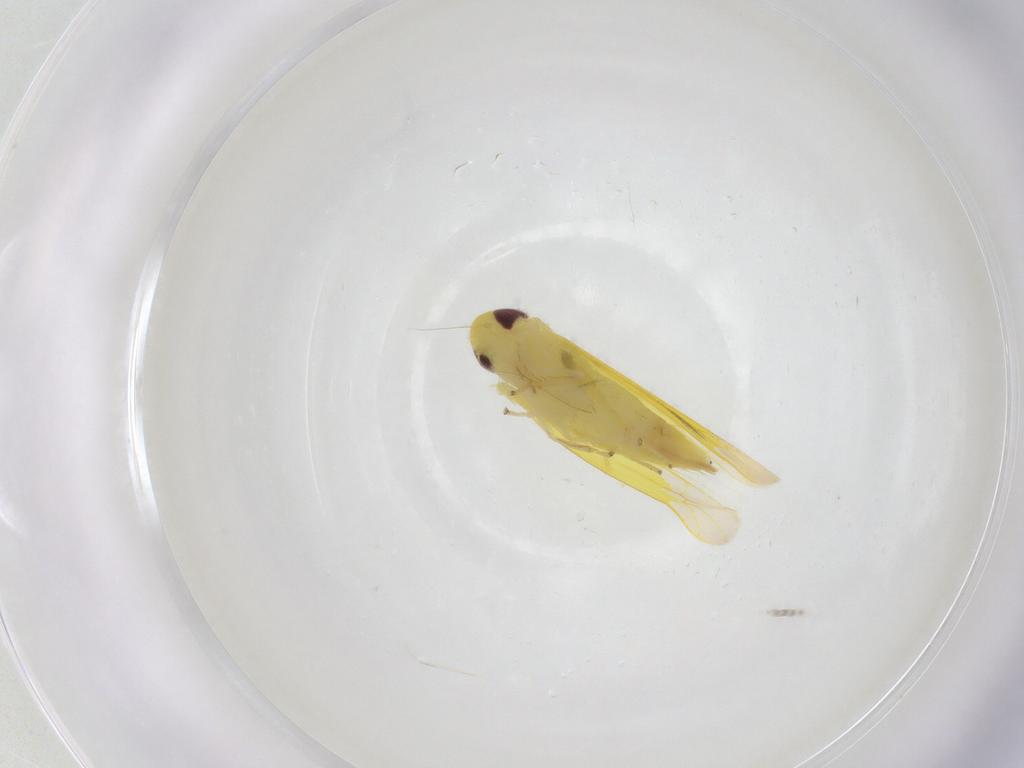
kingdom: Animalia
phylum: Arthropoda
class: Insecta
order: Hemiptera
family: Cicadellidae
